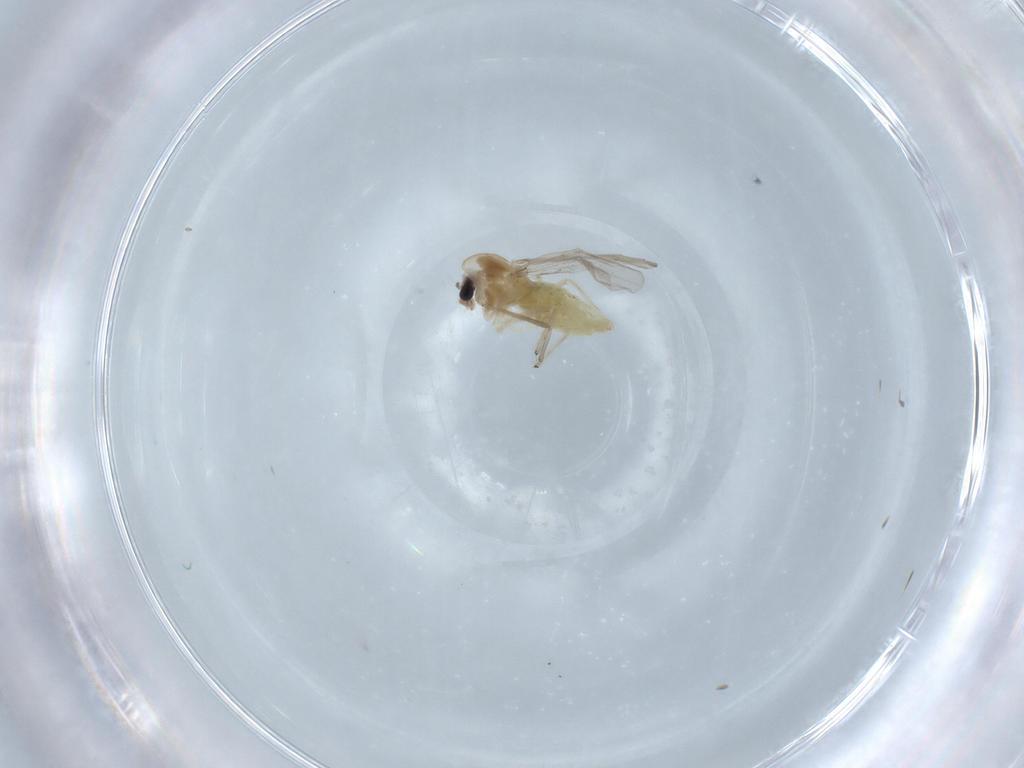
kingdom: Animalia
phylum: Arthropoda
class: Insecta
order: Diptera
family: Chironomidae
